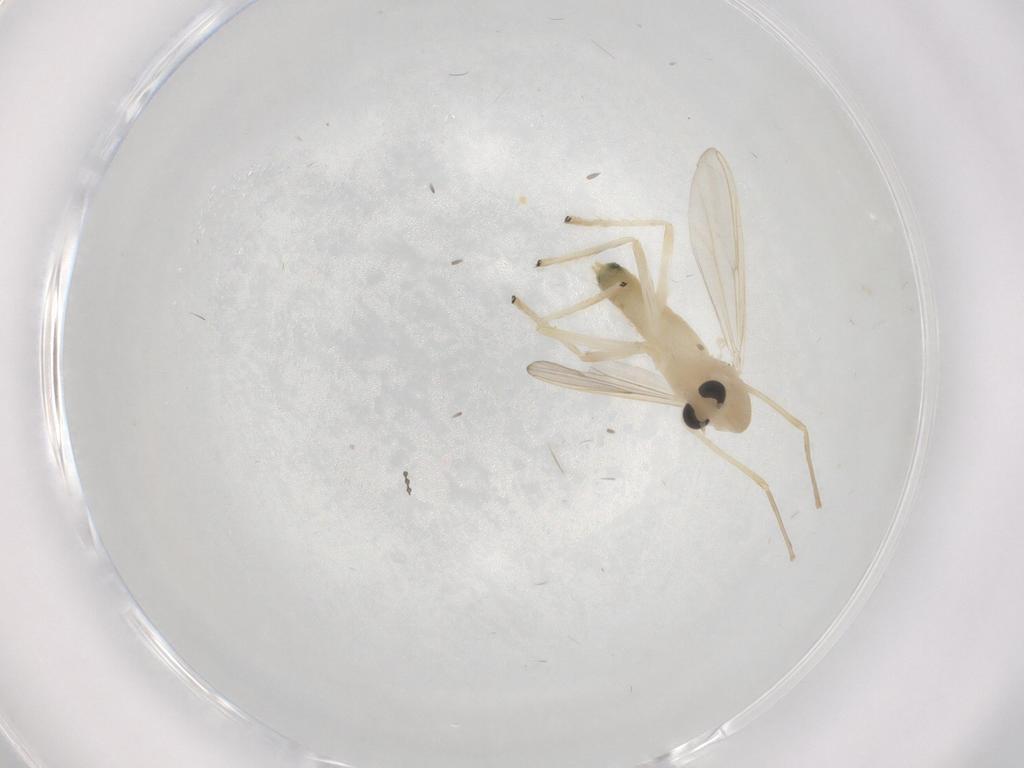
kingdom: Animalia
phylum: Arthropoda
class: Insecta
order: Diptera
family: Chironomidae
